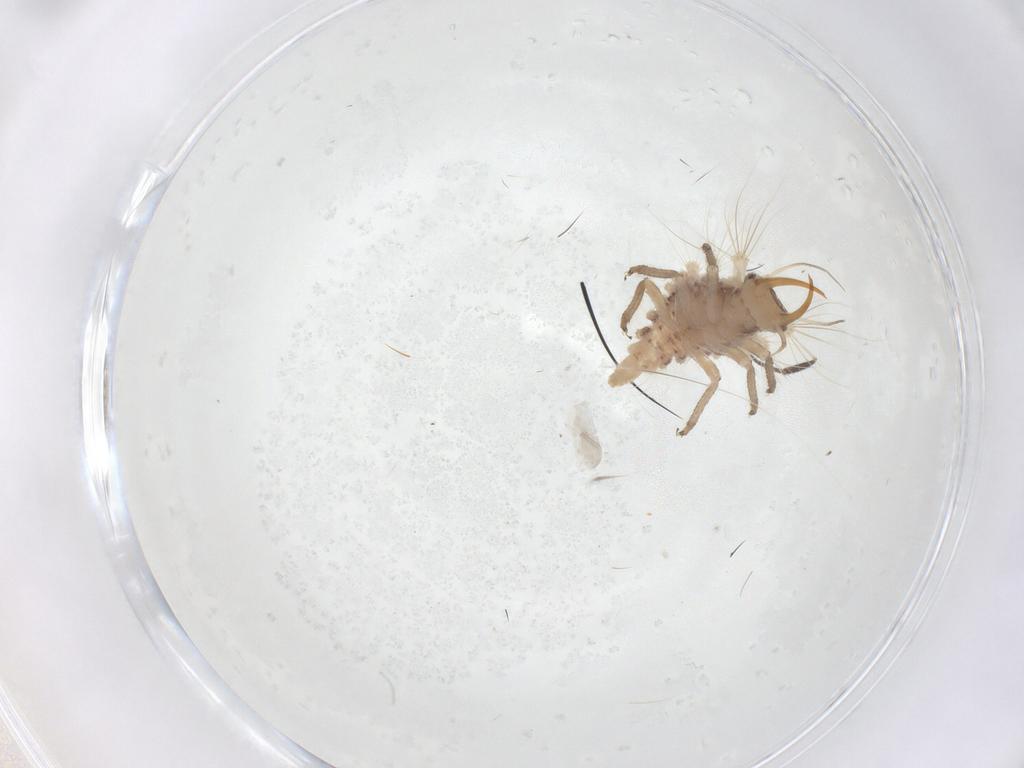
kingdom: Animalia
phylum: Arthropoda
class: Insecta
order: Neuroptera
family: Chrysopidae
